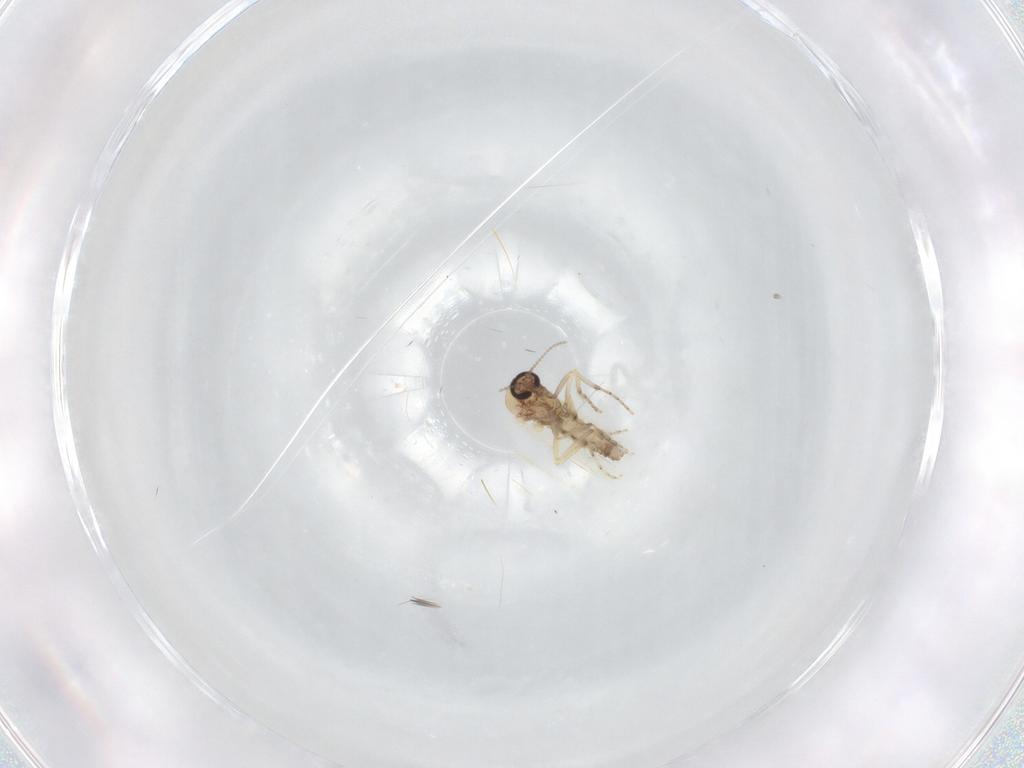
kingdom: Animalia
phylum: Arthropoda
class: Insecta
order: Diptera
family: Ceratopogonidae
